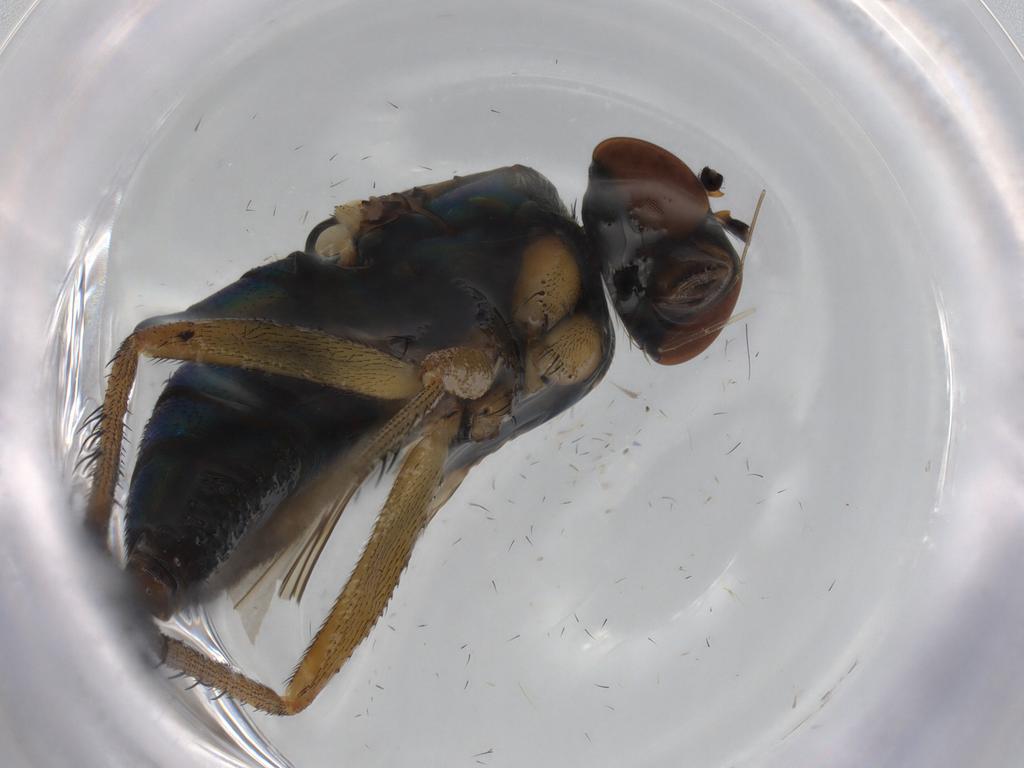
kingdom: Animalia
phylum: Arthropoda
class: Insecta
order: Diptera
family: Dolichopodidae
